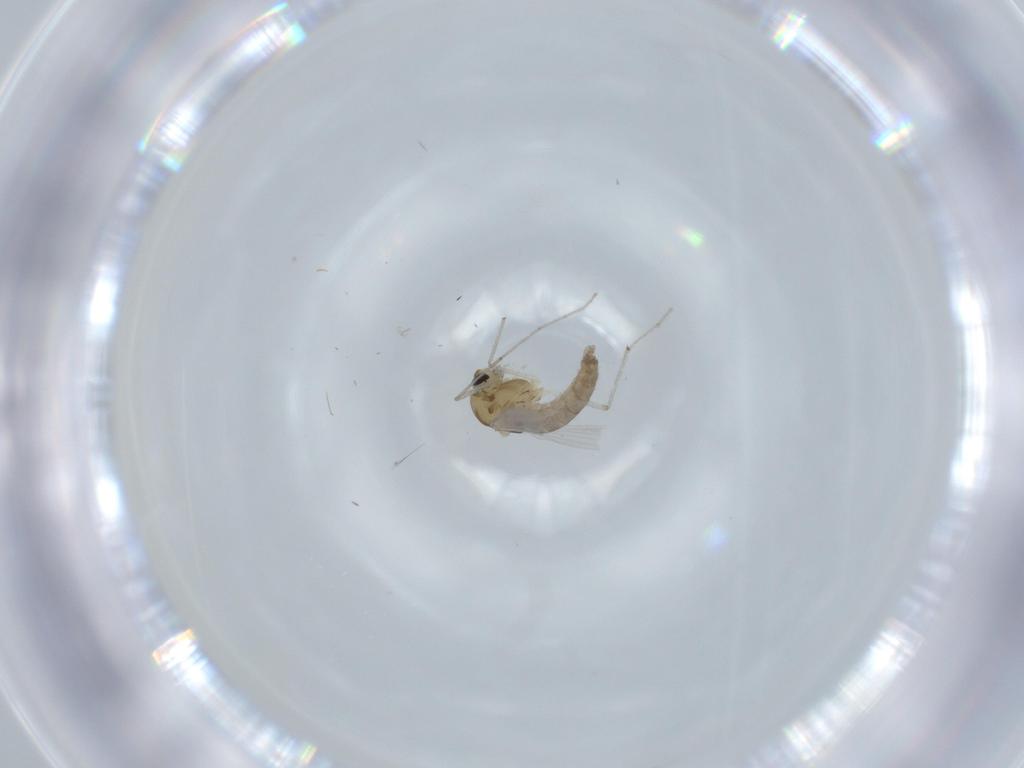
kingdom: Animalia
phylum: Arthropoda
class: Insecta
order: Diptera
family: Chironomidae
